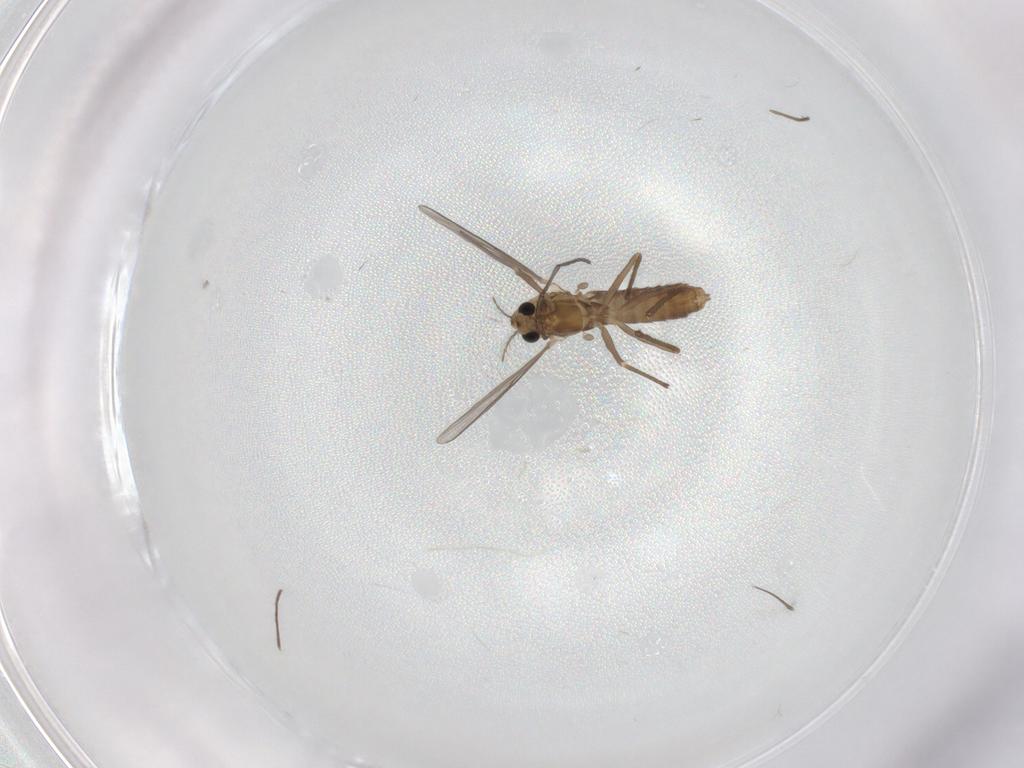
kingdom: Animalia
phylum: Arthropoda
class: Insecta
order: Diptera
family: Chironomidae
